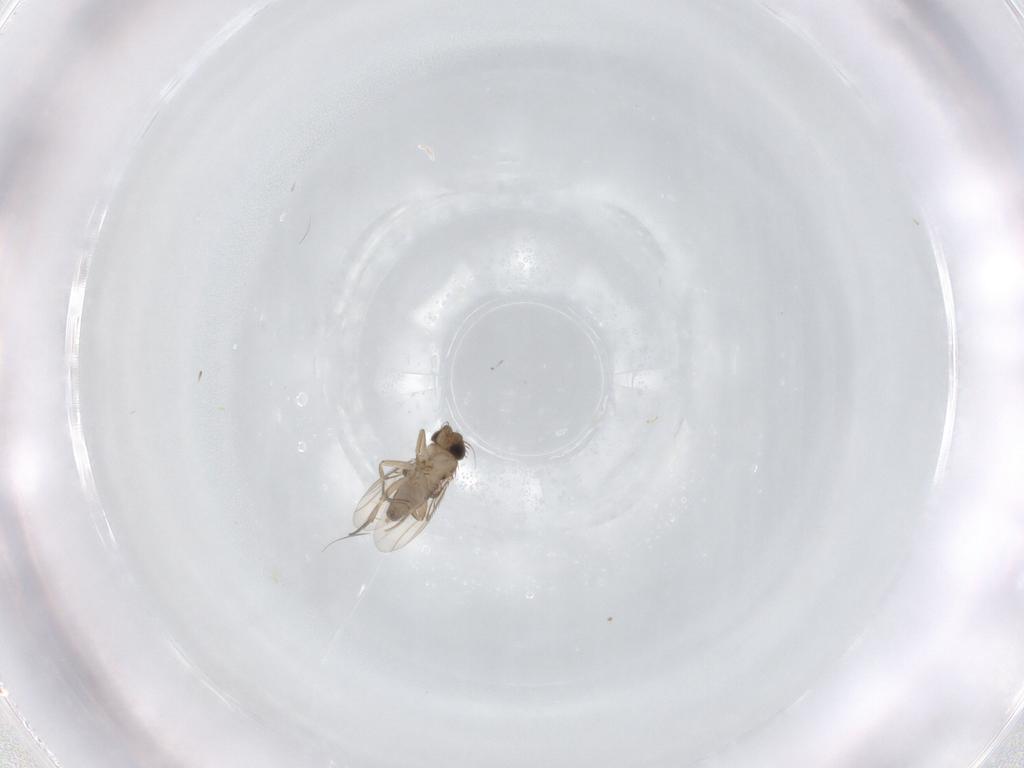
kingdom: Animalia
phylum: Arthropoda
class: Insecta
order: Diptera
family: Phoridae
